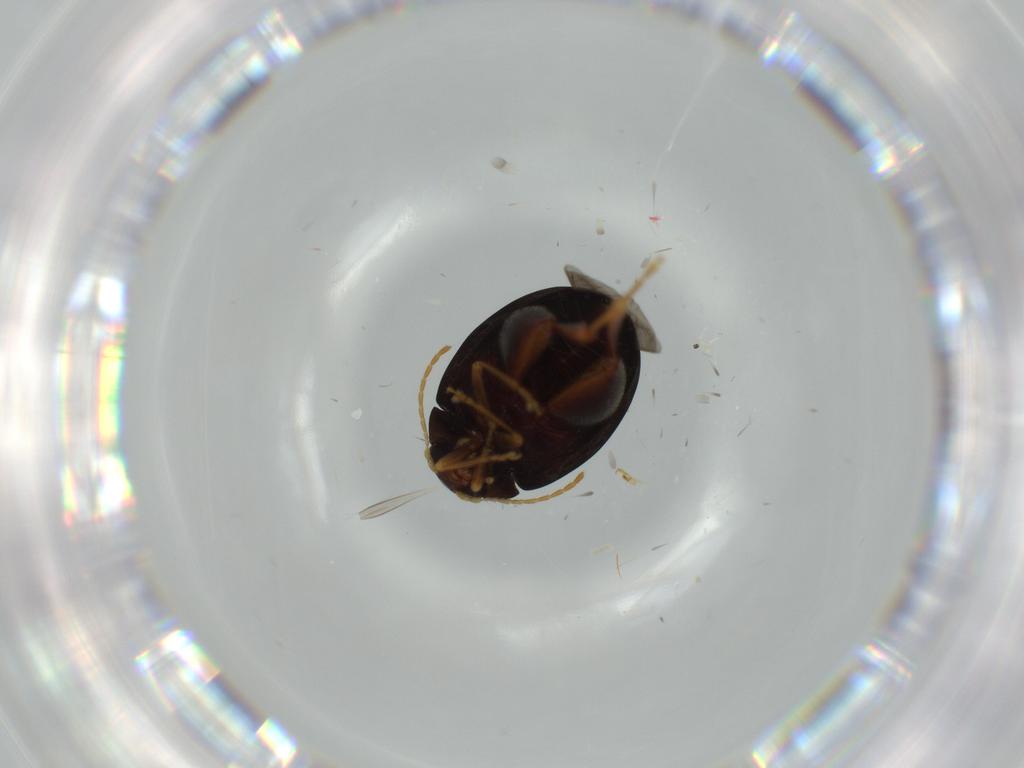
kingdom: Animalia
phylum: Arthropoda
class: Insecta
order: Coleoptera
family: Chrysomelidae
